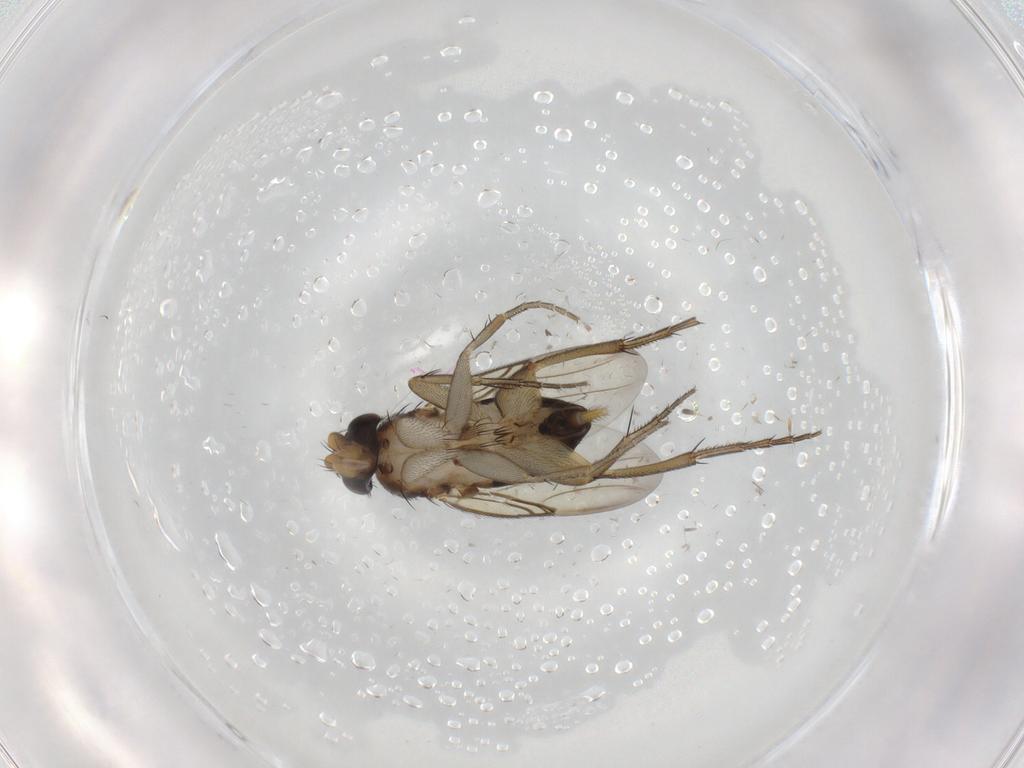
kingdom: Animalia
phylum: Arthropoda
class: Insecta
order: Diptera
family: Phoridae
